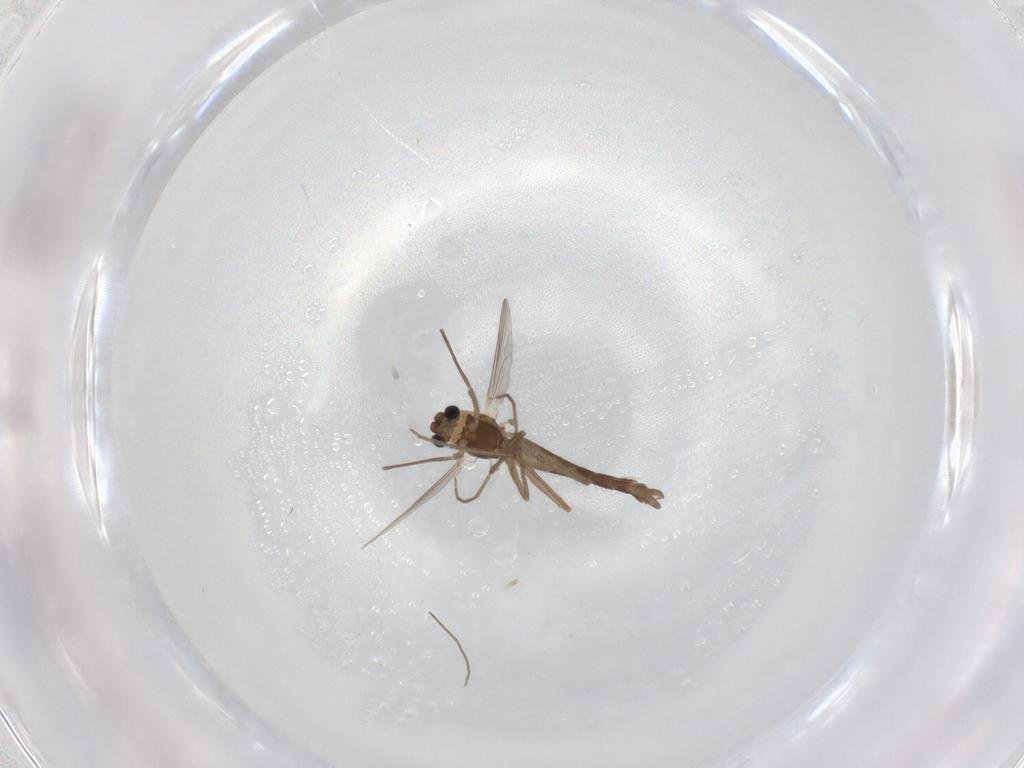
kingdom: Animalia
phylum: Arthropoda
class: Insecta
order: Diptera
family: Chironomidae
